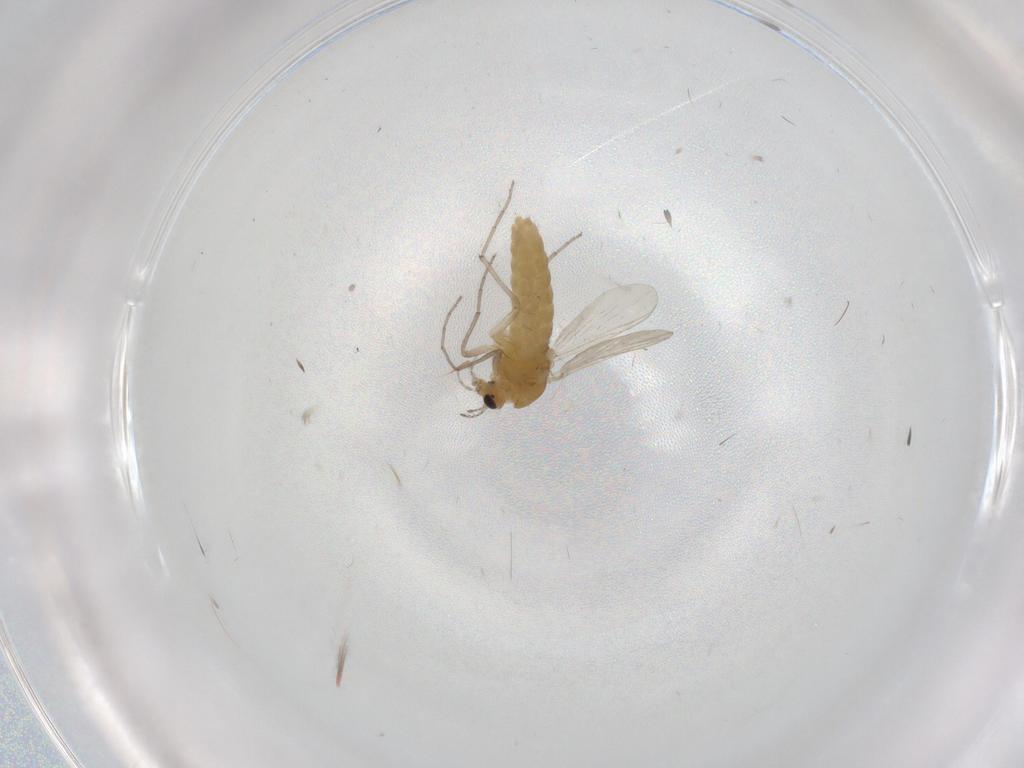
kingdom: Animalia
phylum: Arthropoda
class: Insecta
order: Diptera
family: Chironomidae
